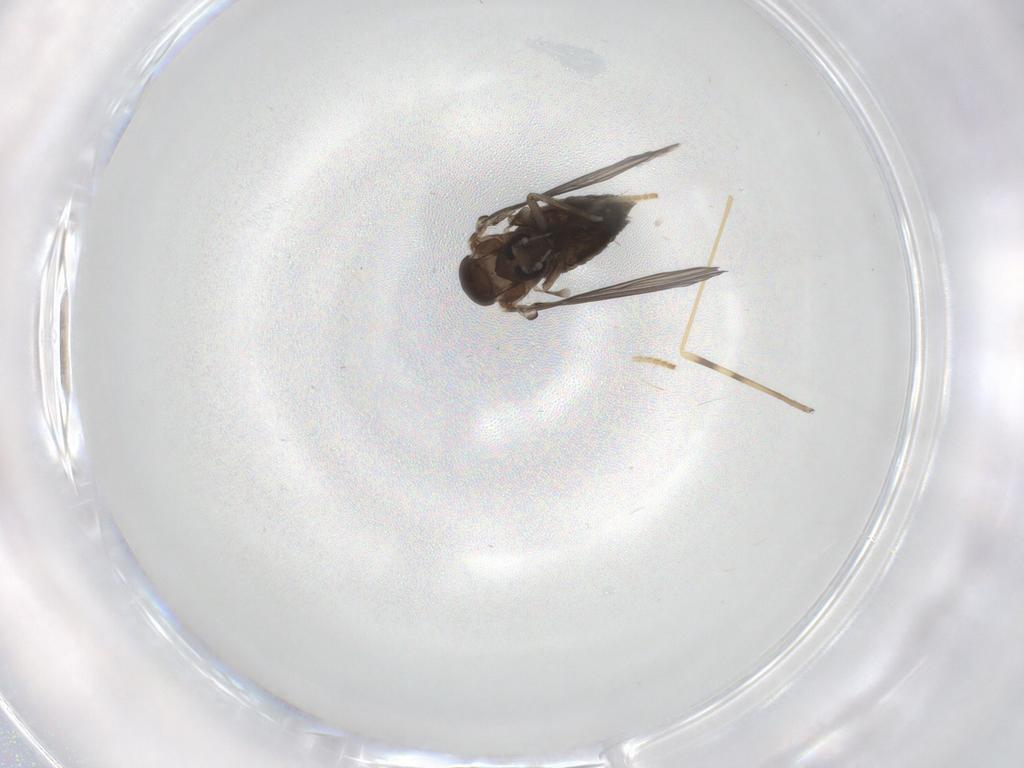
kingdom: Animalia
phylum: Arthropoda
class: Insecta
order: Diptera
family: Psychodidae
